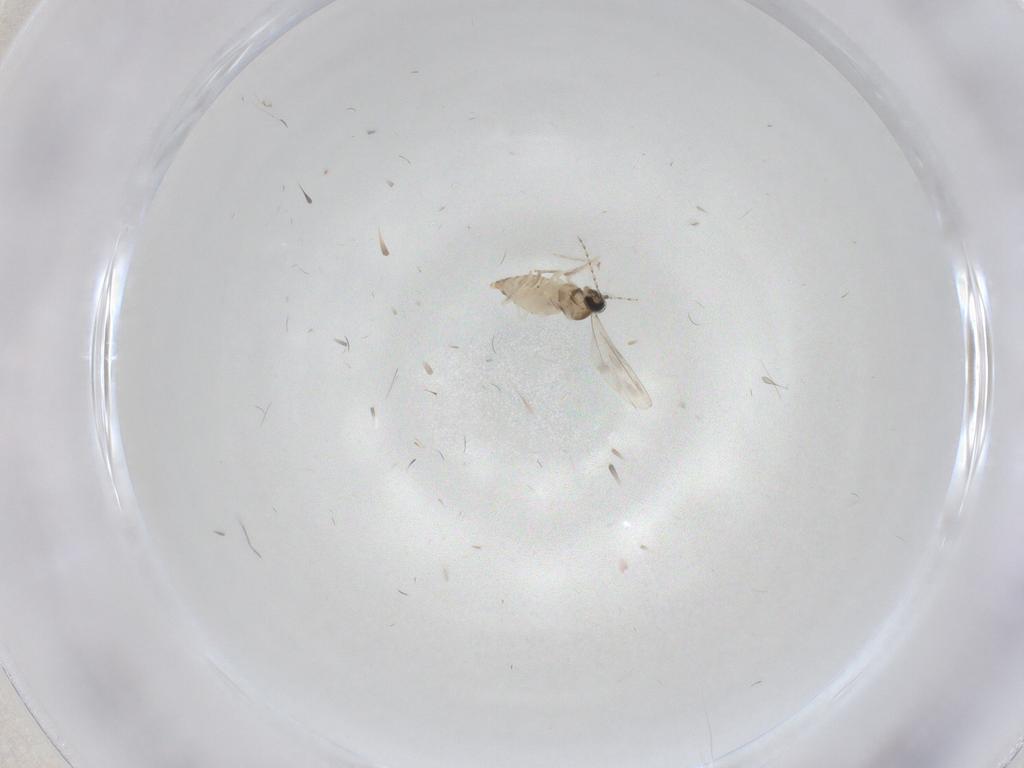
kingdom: Animalia
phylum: Arthropoda
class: Insecta
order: Diptera
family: Cecidomyiidae
